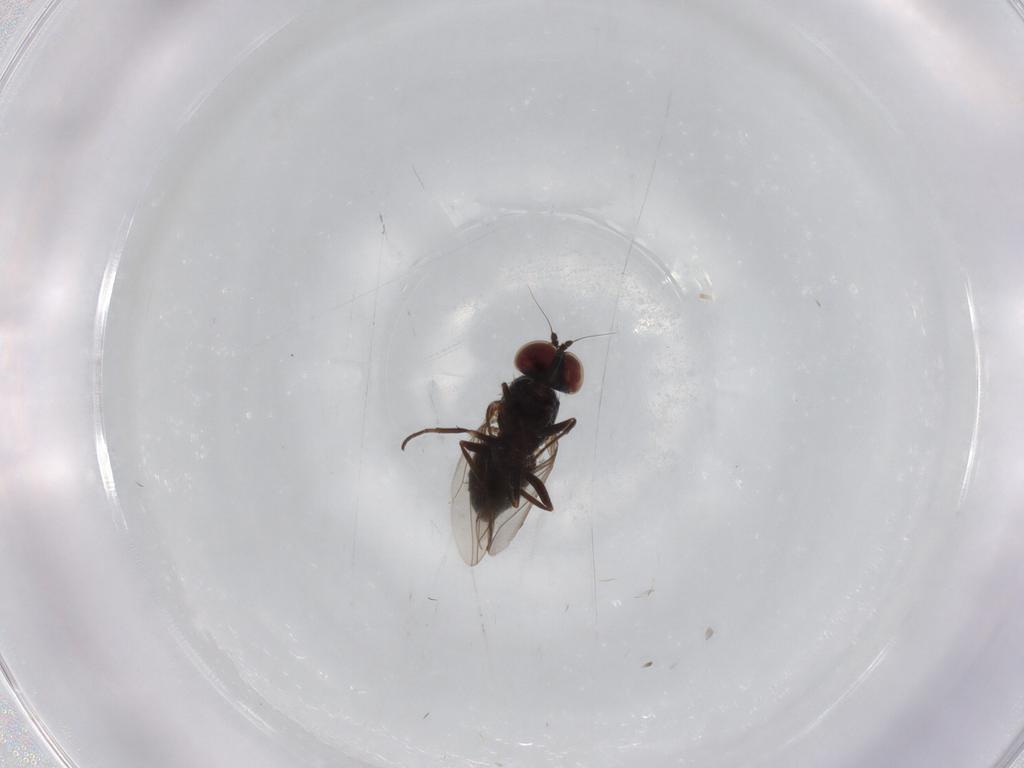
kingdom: Animalia
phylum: Arthropoda
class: Insecta
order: Diptera
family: Dolichopodidae
